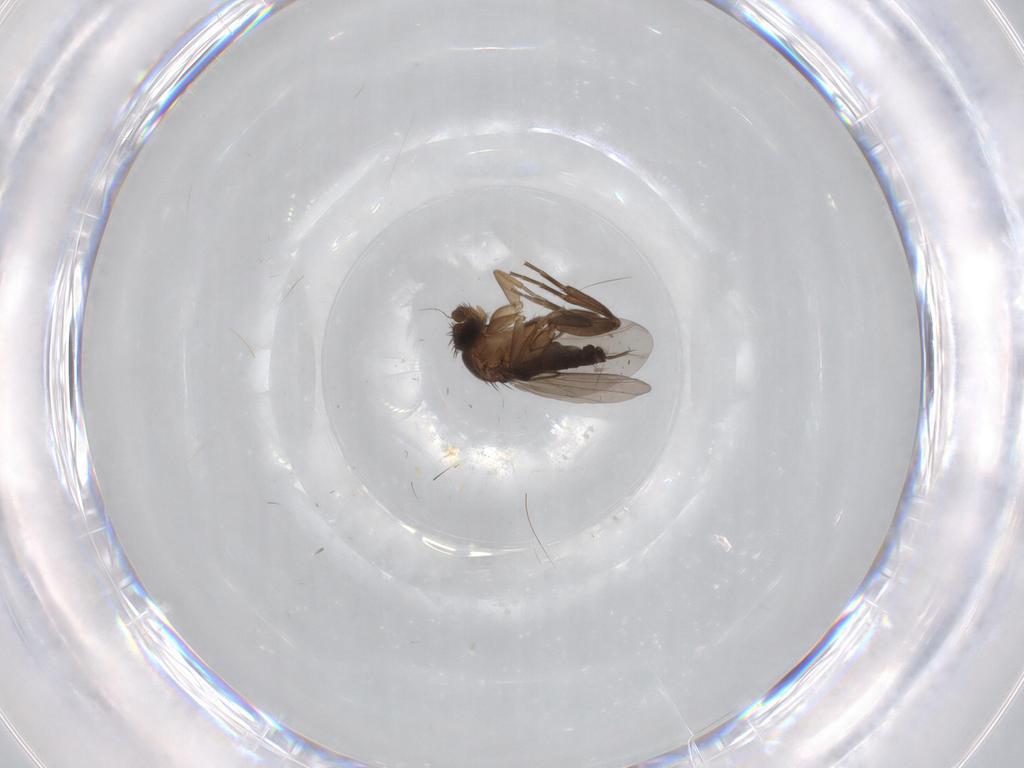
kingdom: Animalia
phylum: Arthropoda
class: Insecta
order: Diptera
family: Phoridae
